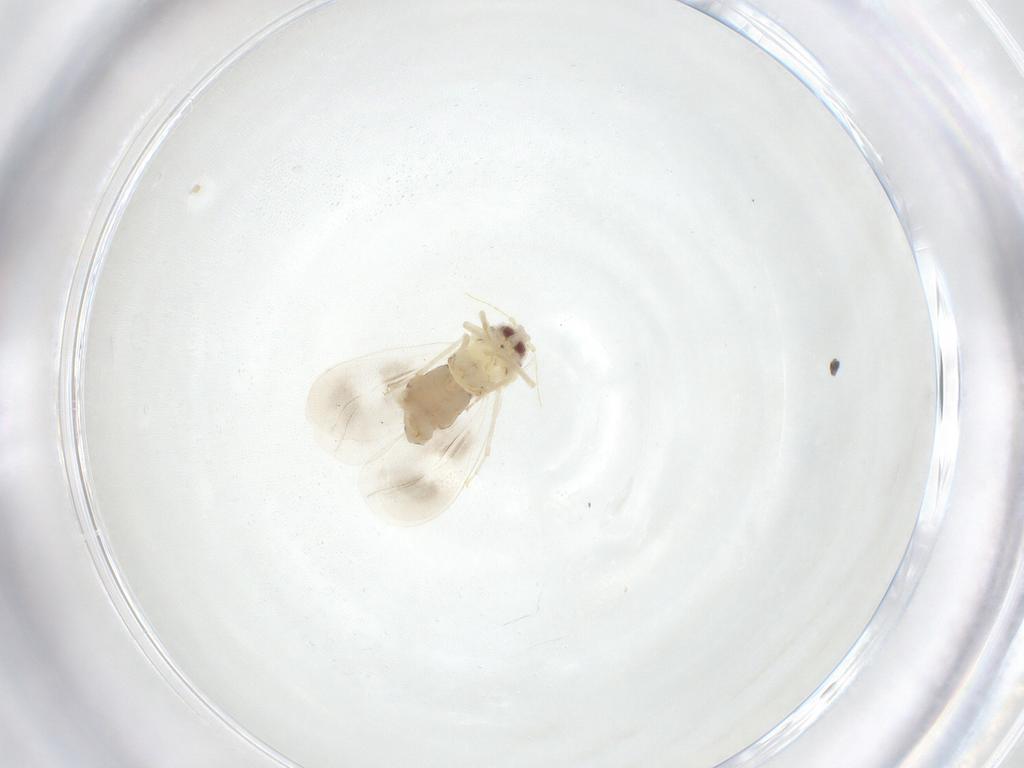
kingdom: Animalia
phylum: Arthropoda
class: Insecta
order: Hemiptera
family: Aleyrodidae
